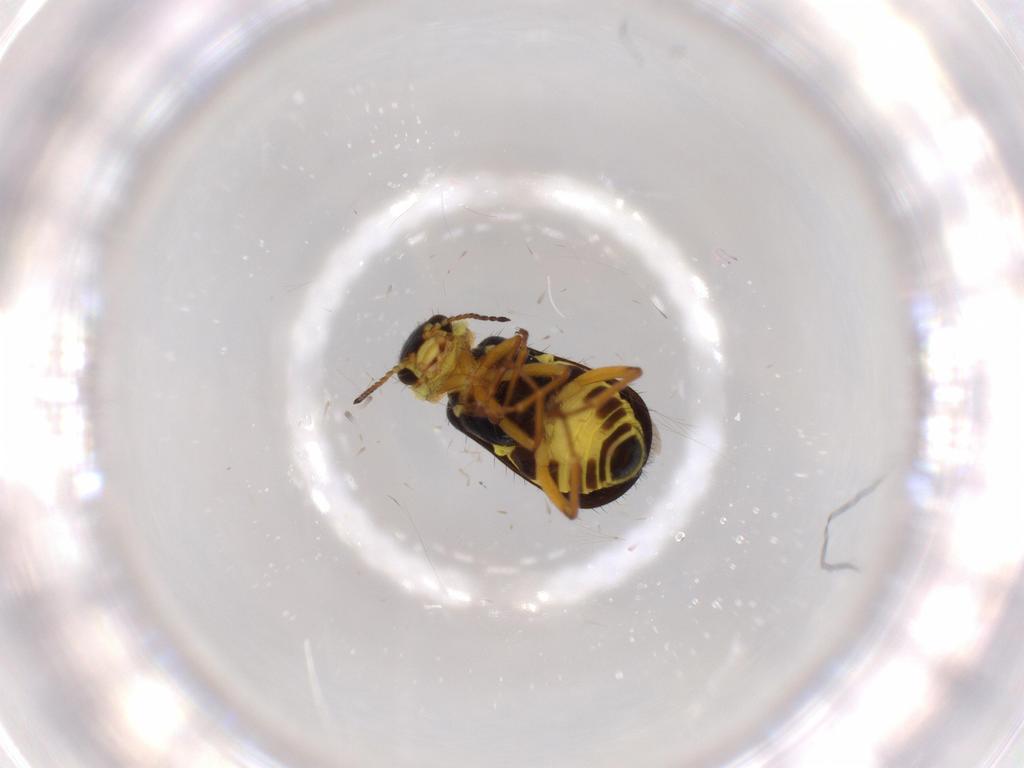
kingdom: Animalia
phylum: Arthropoda
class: Insecta
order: Coleoptera
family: Melyridae
